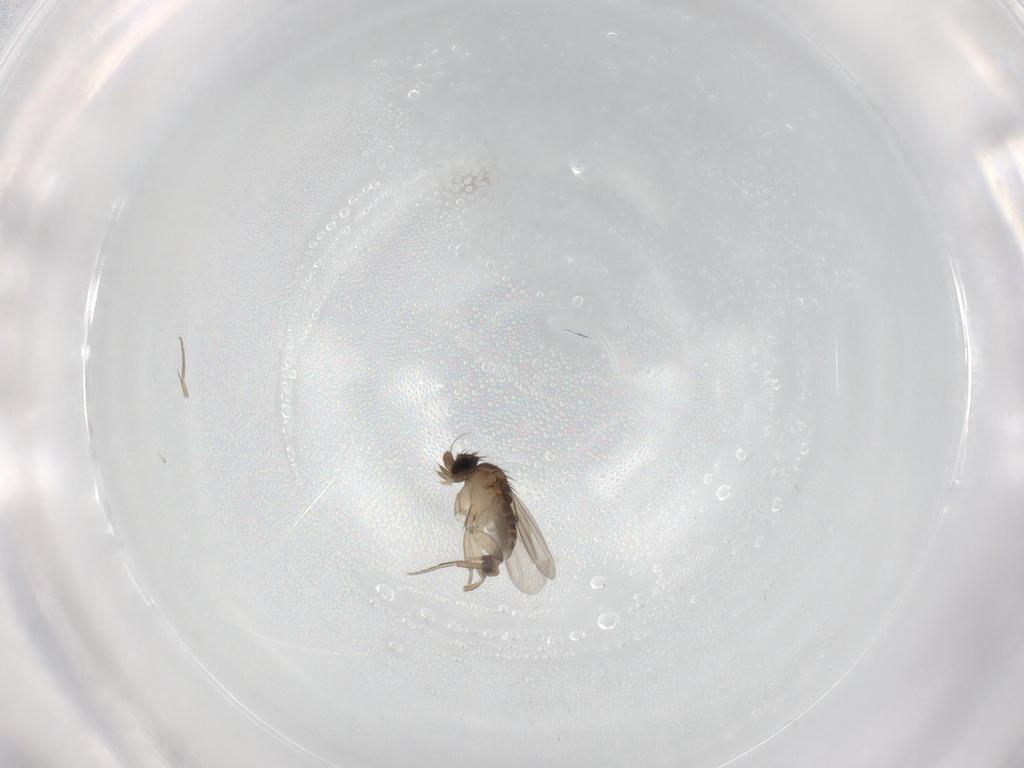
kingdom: Animalia
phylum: Arthropoda
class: Insecta
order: Diptera
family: Phoridae
